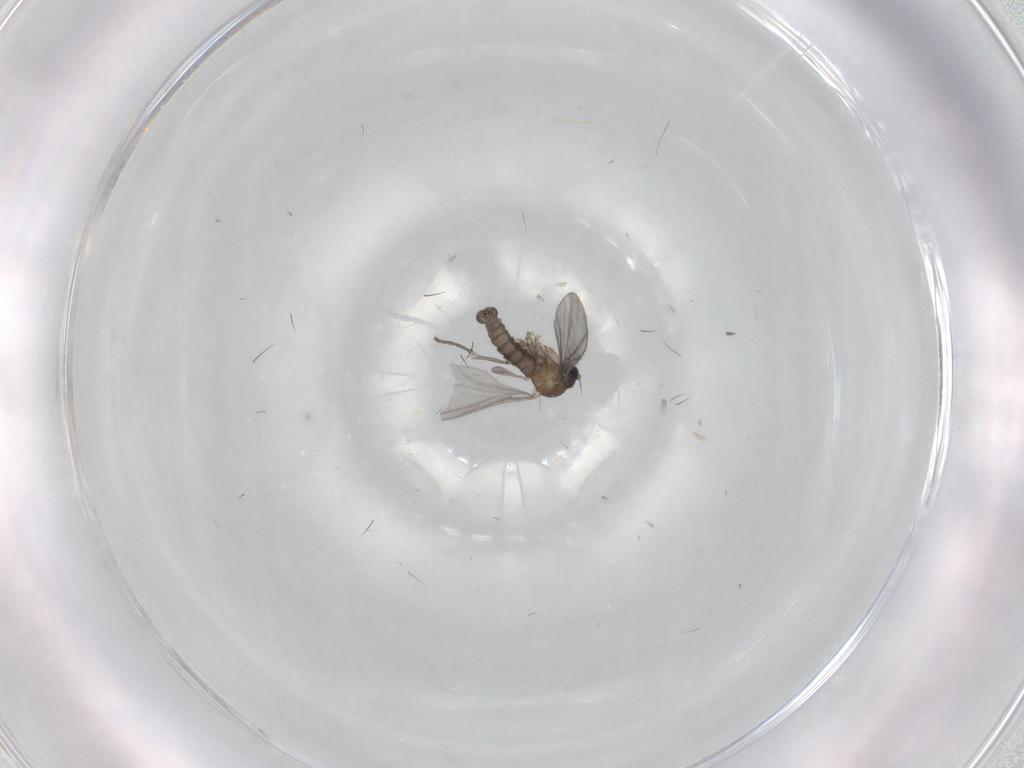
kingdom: Animalia
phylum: Arthropoda
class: Insecta
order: Diptera
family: Sciaridae
